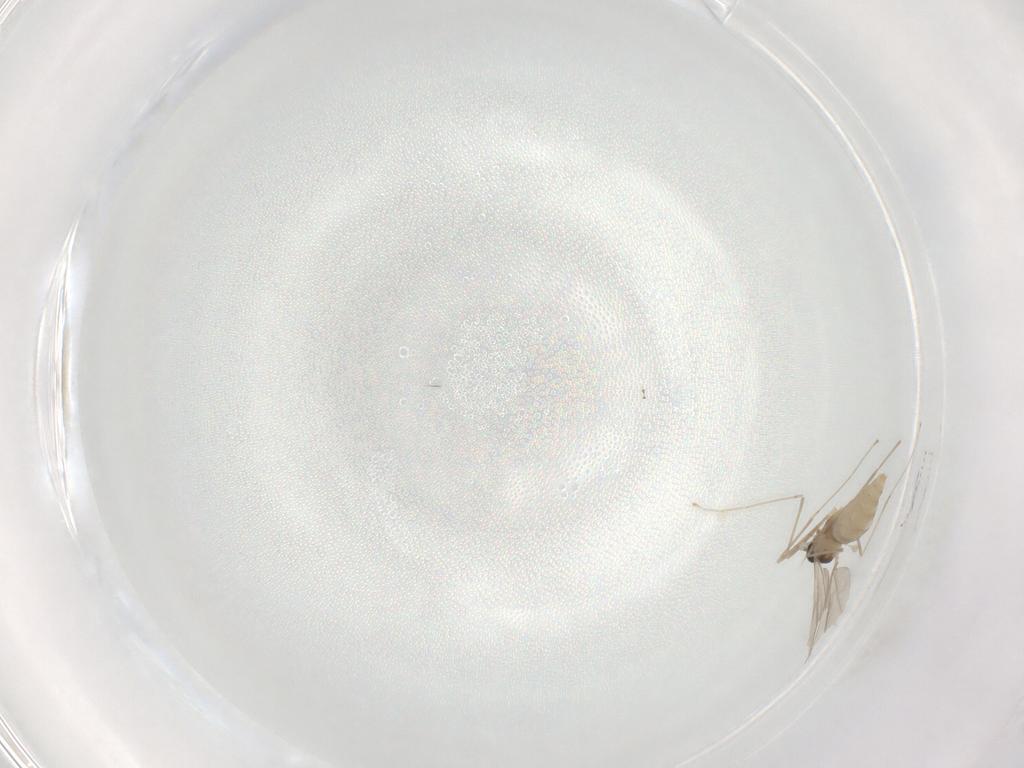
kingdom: Animalia
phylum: Arthropoda
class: Insecta
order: Diptera
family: Cecidomyiidae
